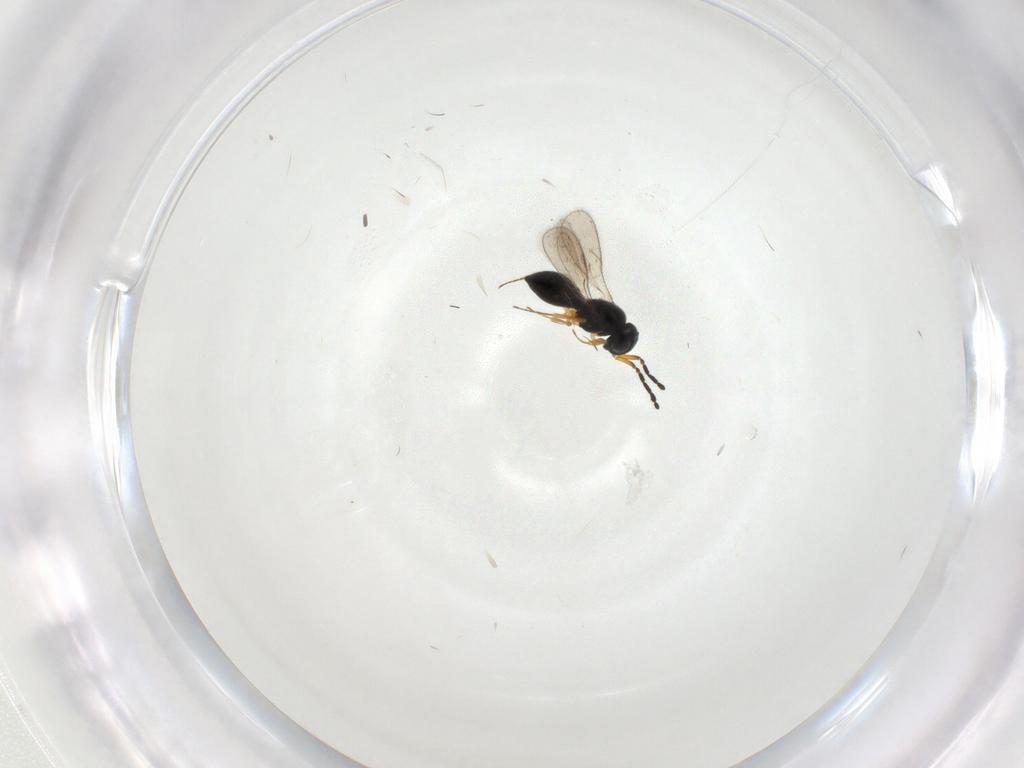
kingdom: Animalia
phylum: Arthropoda
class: Insecta
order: Hymenoptera
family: Scelionidae
